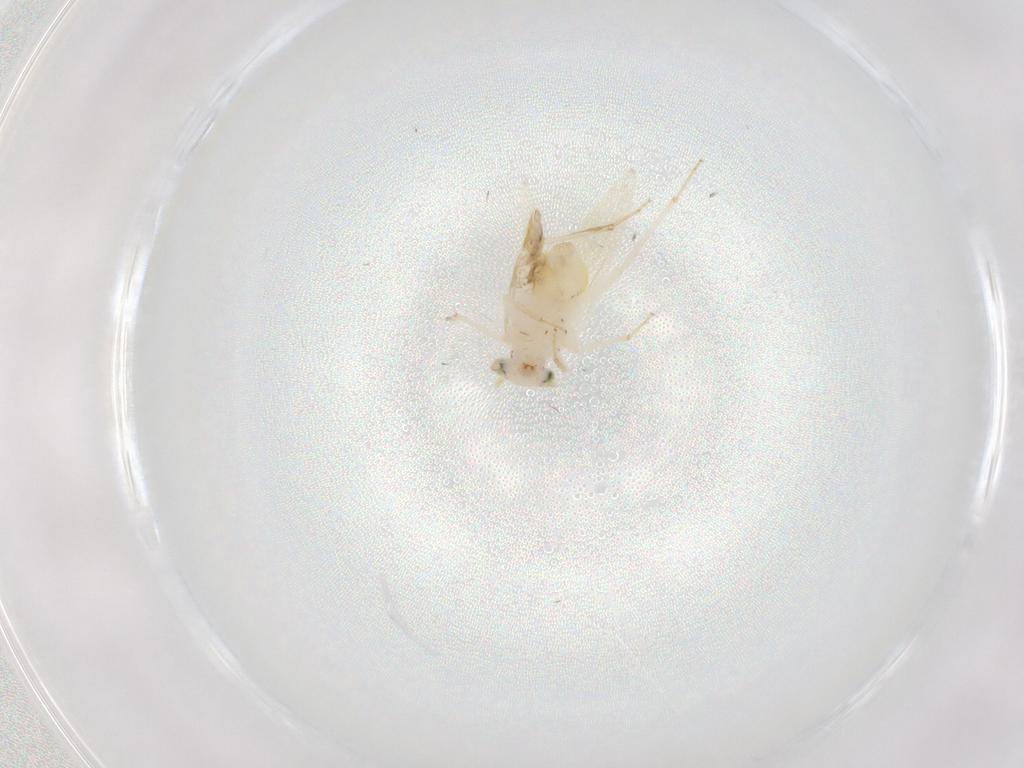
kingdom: Animalia
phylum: Arthropoda
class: Insecta
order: Psocodea
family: Lepidopsocidae
